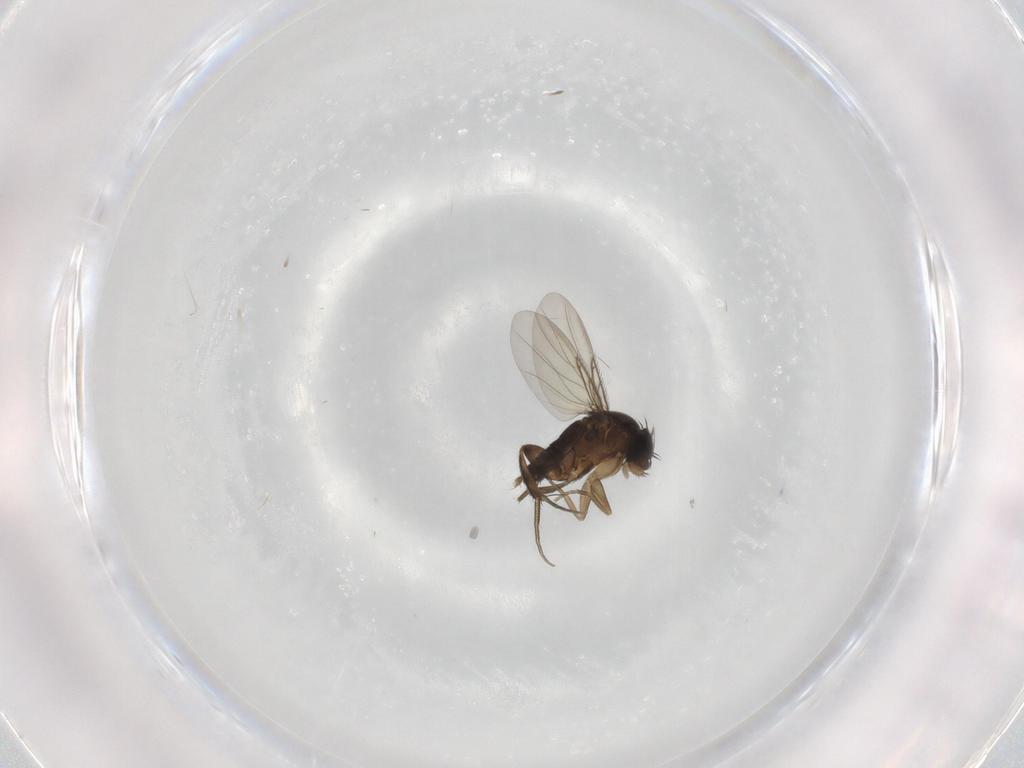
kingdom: Animalia
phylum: Arthropoda
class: Insecta
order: Diptera
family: Phoridae
